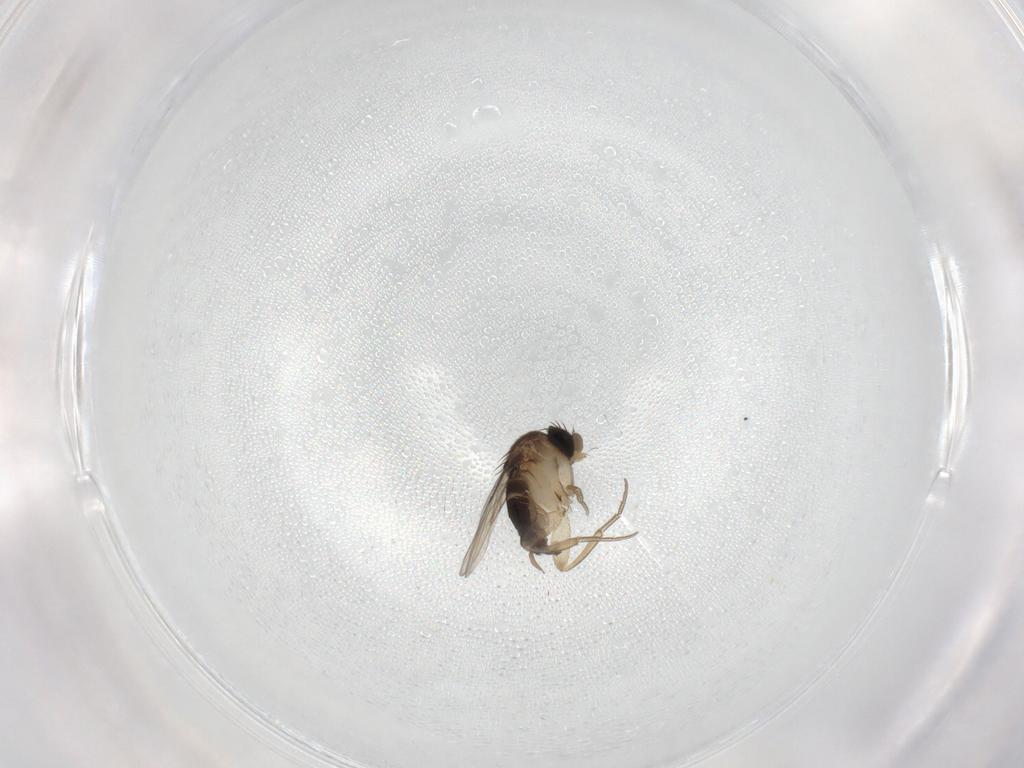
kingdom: Animalia
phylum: Arthropoda
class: Insecta
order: Diptera
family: Sciaridae
